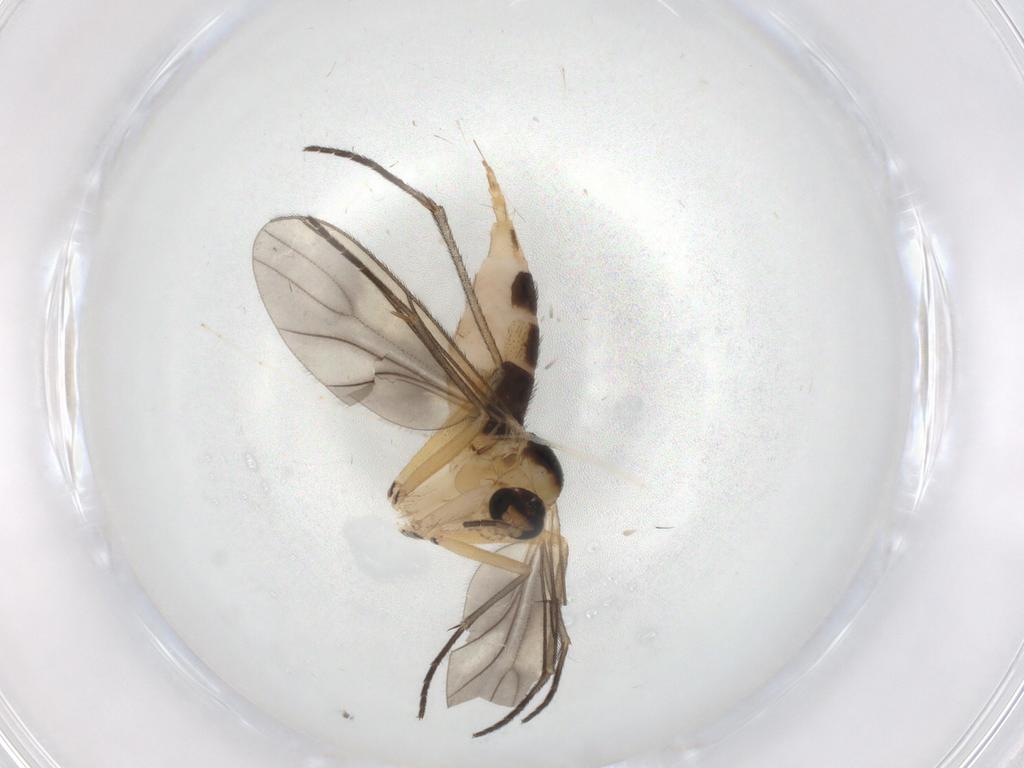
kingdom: Animalia
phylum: Arthropoda
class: Insecta
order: Diptera
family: Sciaridae
